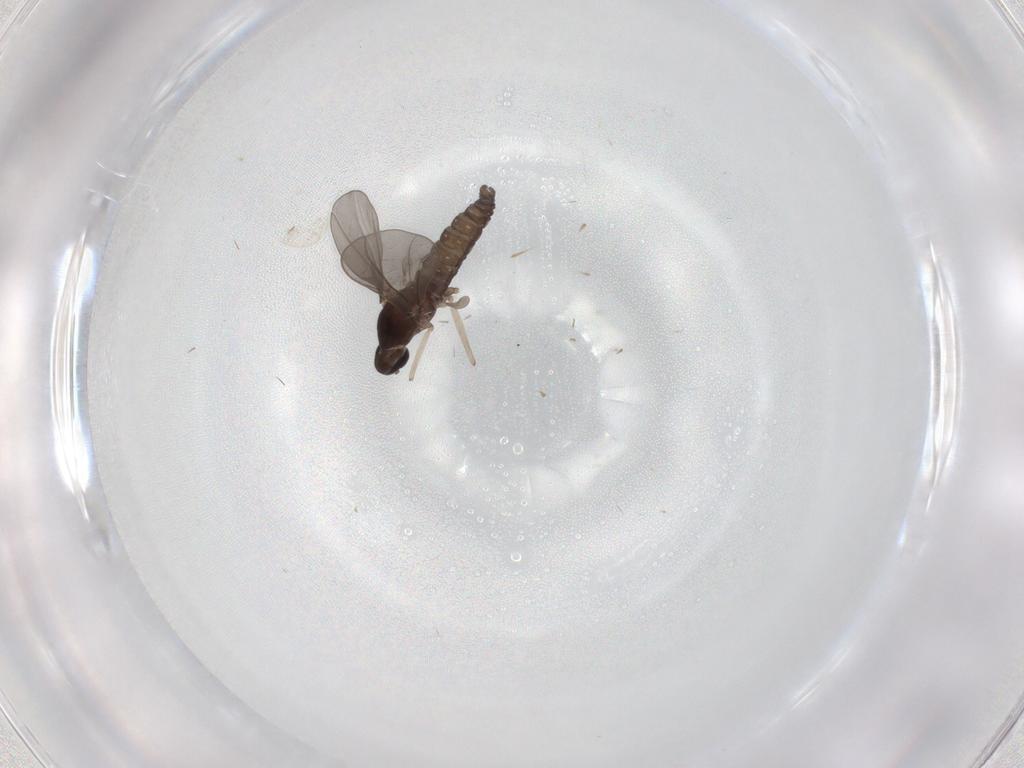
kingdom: Animalia
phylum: Arthropoda
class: Insecta
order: Diptera
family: Cecidomyiidae
